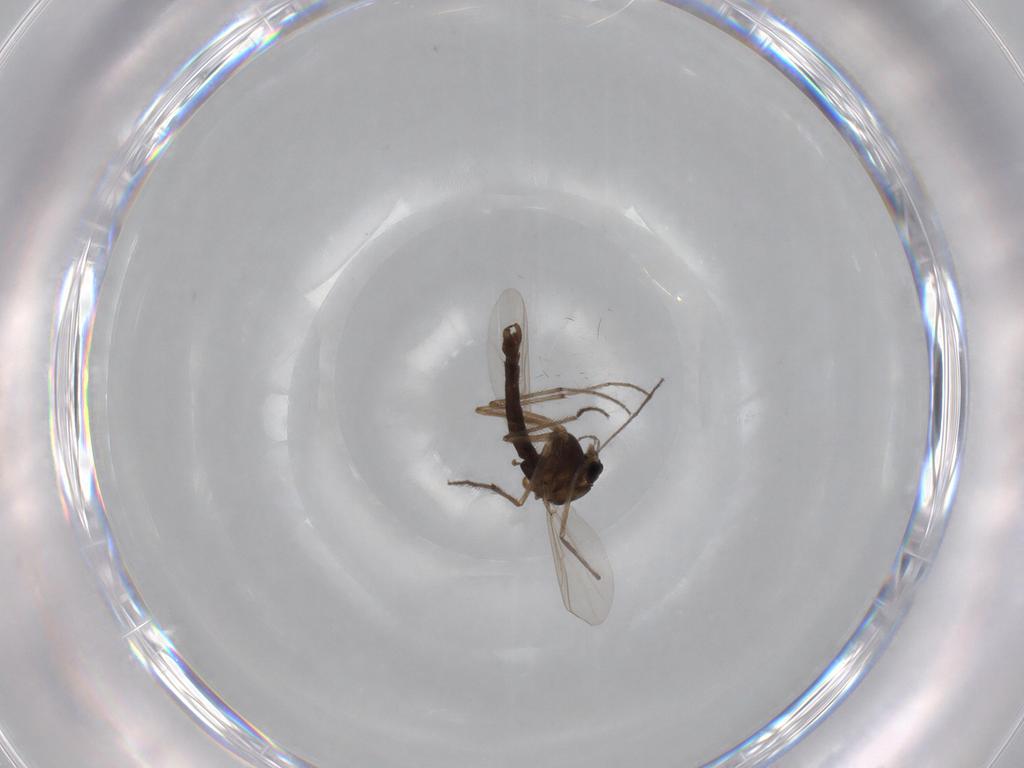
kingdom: Animalia
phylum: Arthropoda
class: Insecta
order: Diptera
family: Chironomidae
